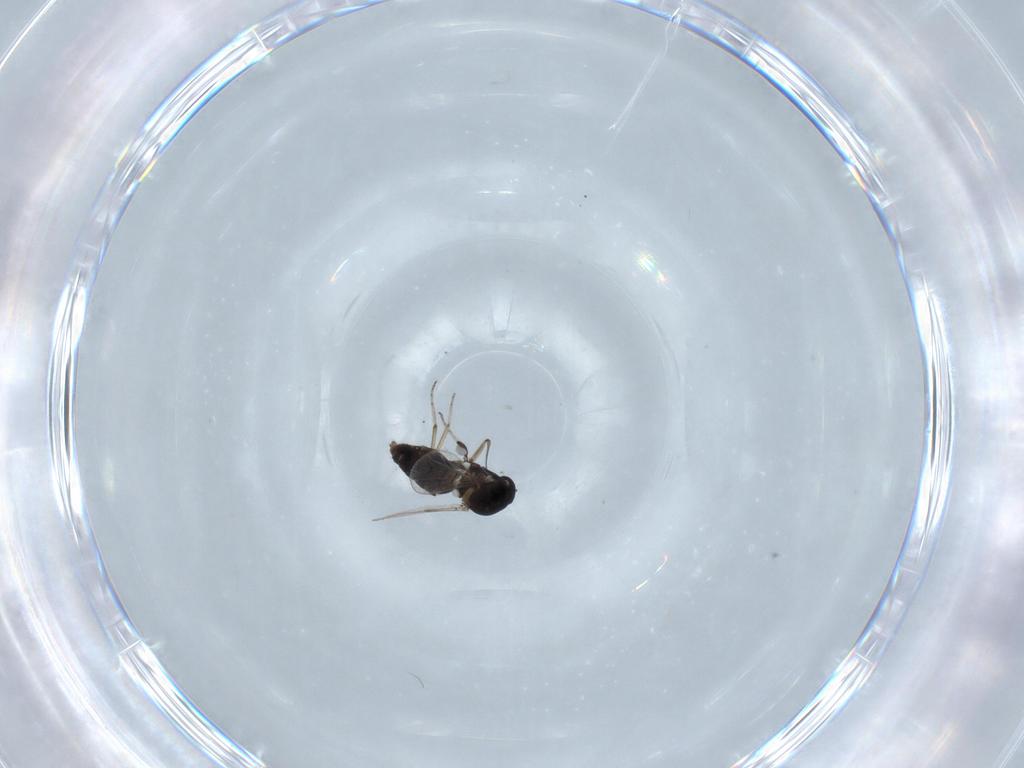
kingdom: Animalia
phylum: Arthropoda
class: Insecta
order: Diptera
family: Ceratopogonidae
